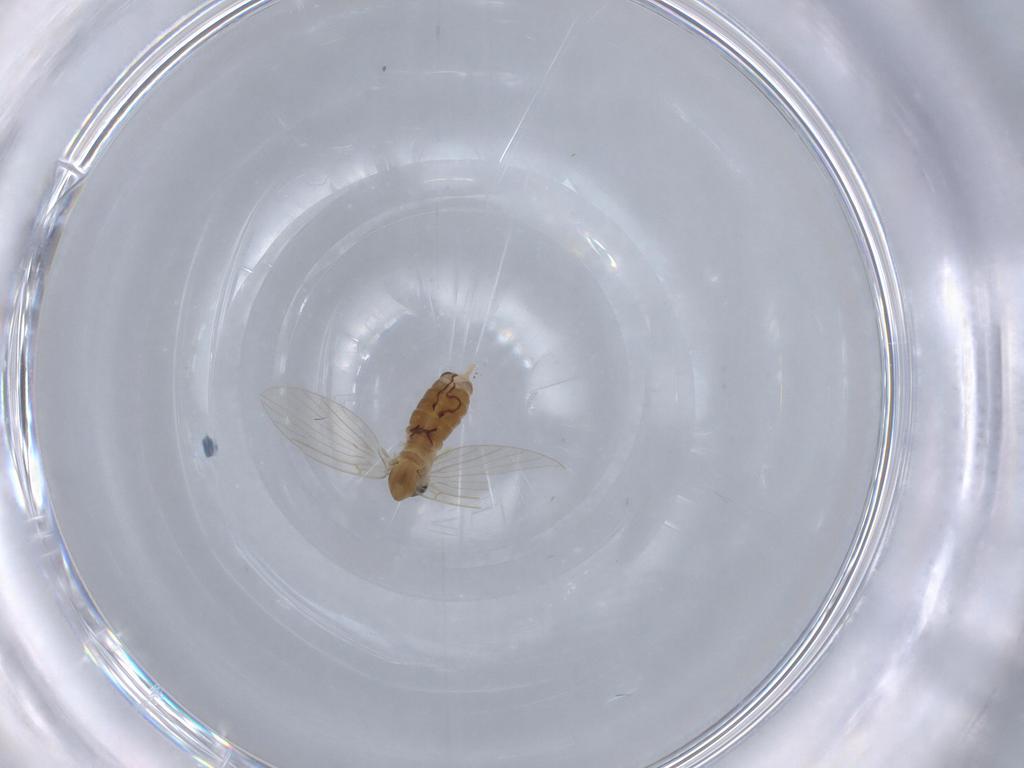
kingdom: Animalia
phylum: Arthropoda
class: Insecta
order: Diptera
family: Psychodidae
